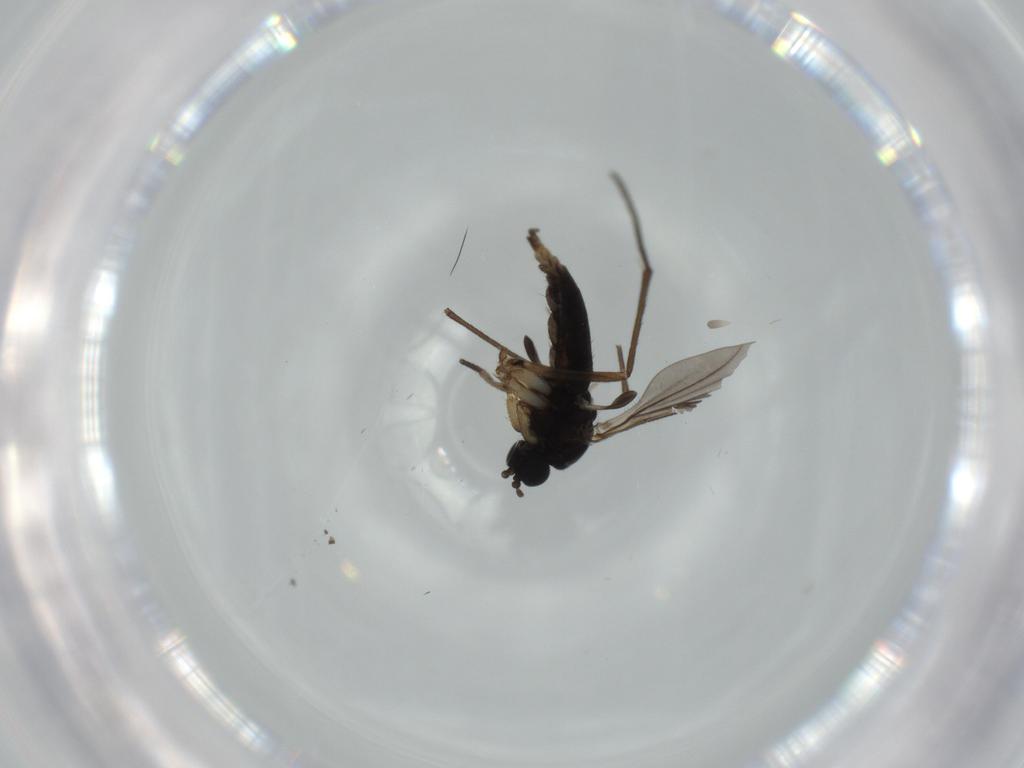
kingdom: Animalia
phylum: Arthropoda
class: Insecta
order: Diptera
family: Sciaridae
